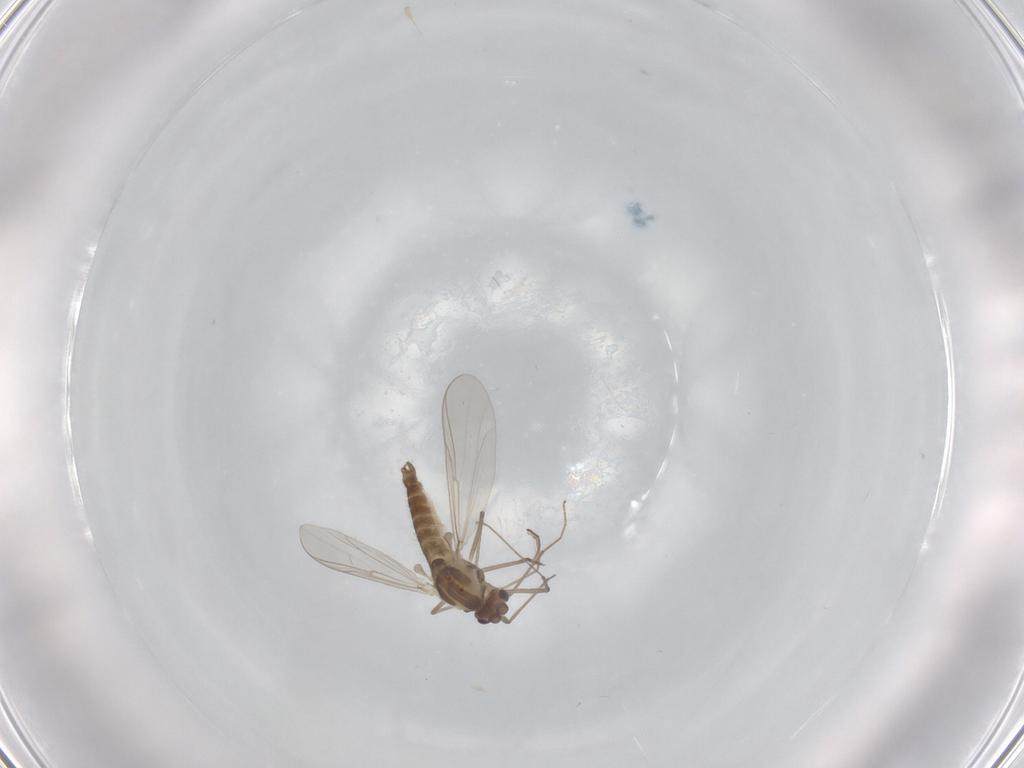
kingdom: Animalia
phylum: Arthropoda
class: Insecta
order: Diptera
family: Chironomidae
